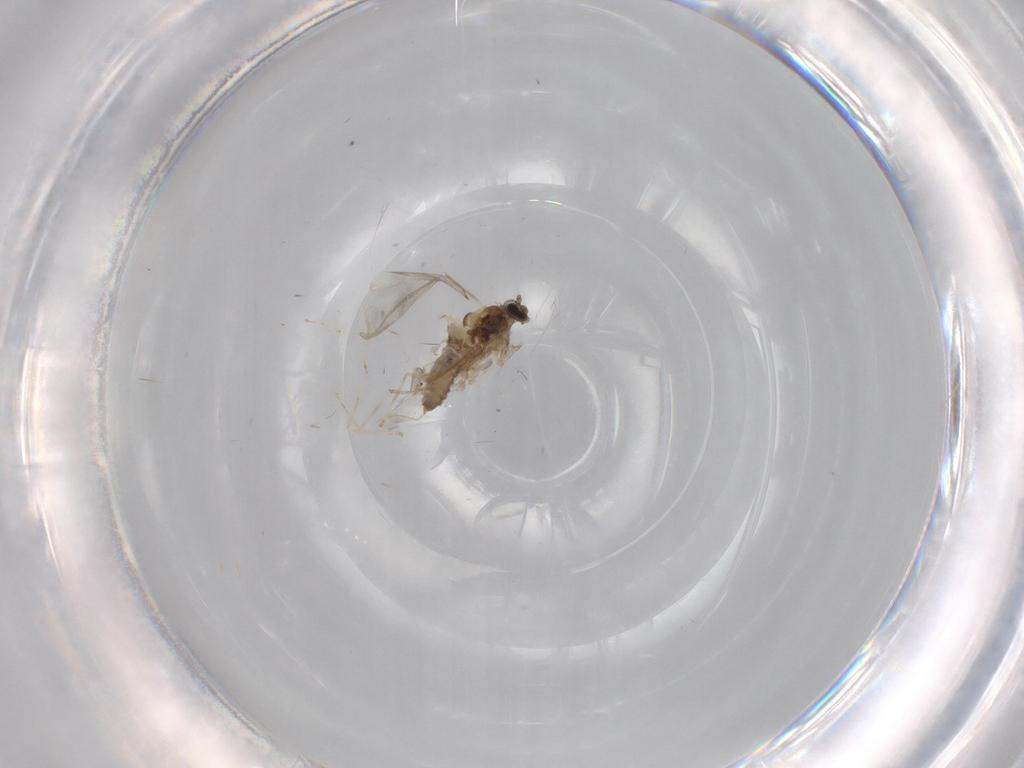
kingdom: Animalia
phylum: Arthropoda
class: Insecta
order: Diptera
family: Cecidomyiidae
